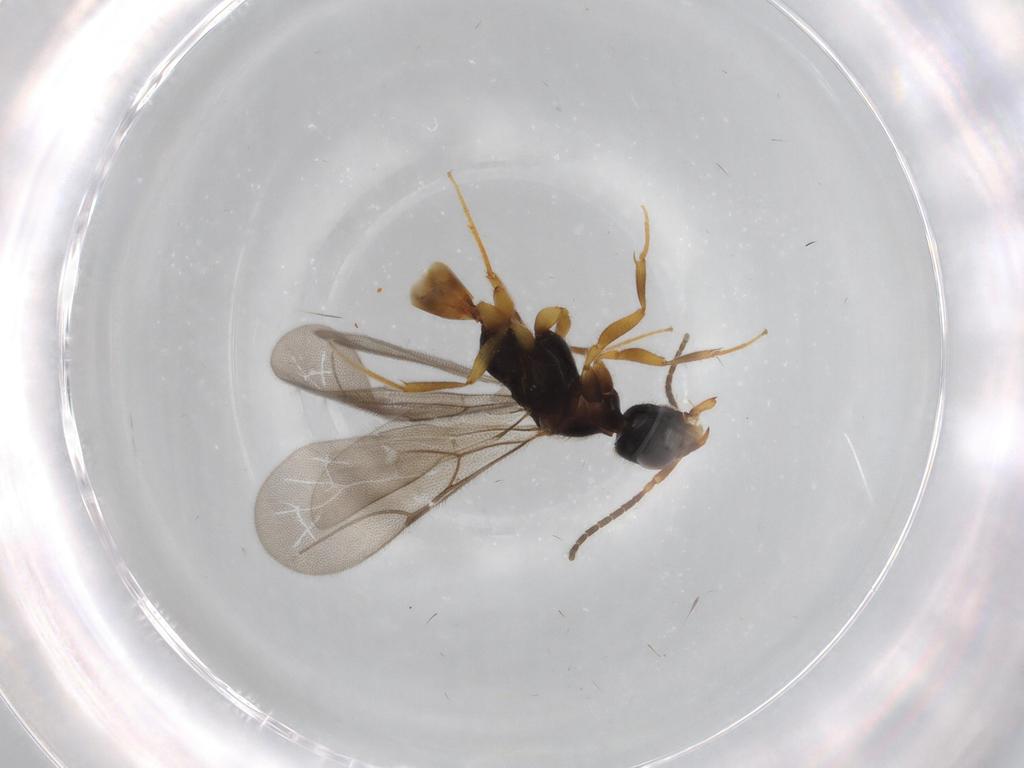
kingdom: Animalia
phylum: Arthropoda
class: Insecta
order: Hymenoptera
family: Bethylidae
